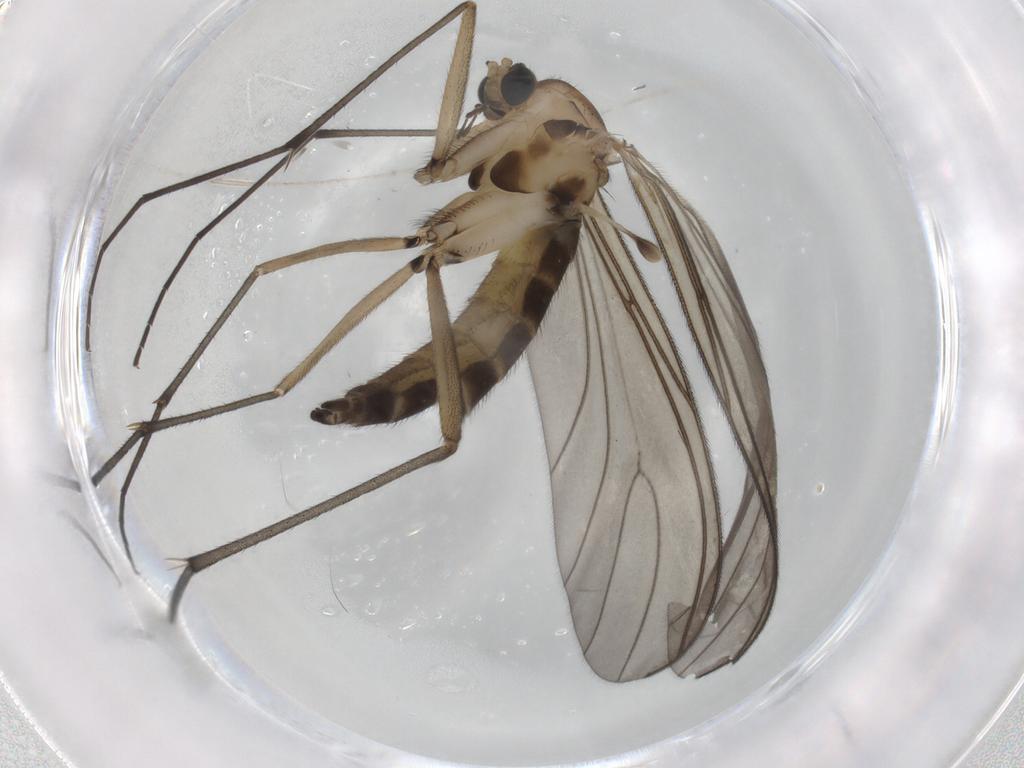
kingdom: Animalia
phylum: Arthropoda
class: Insecta
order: Diptera
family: Sciaridae
